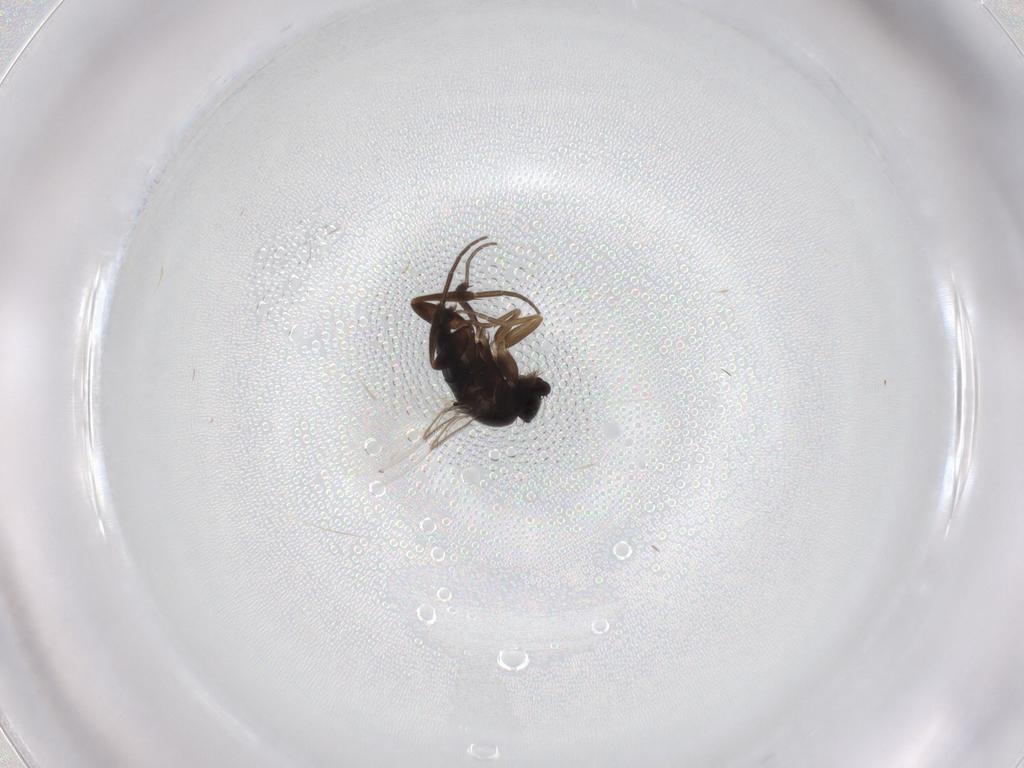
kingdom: Animalia
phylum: Arthropoda
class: Insecta
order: Diptera
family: Phoridae
